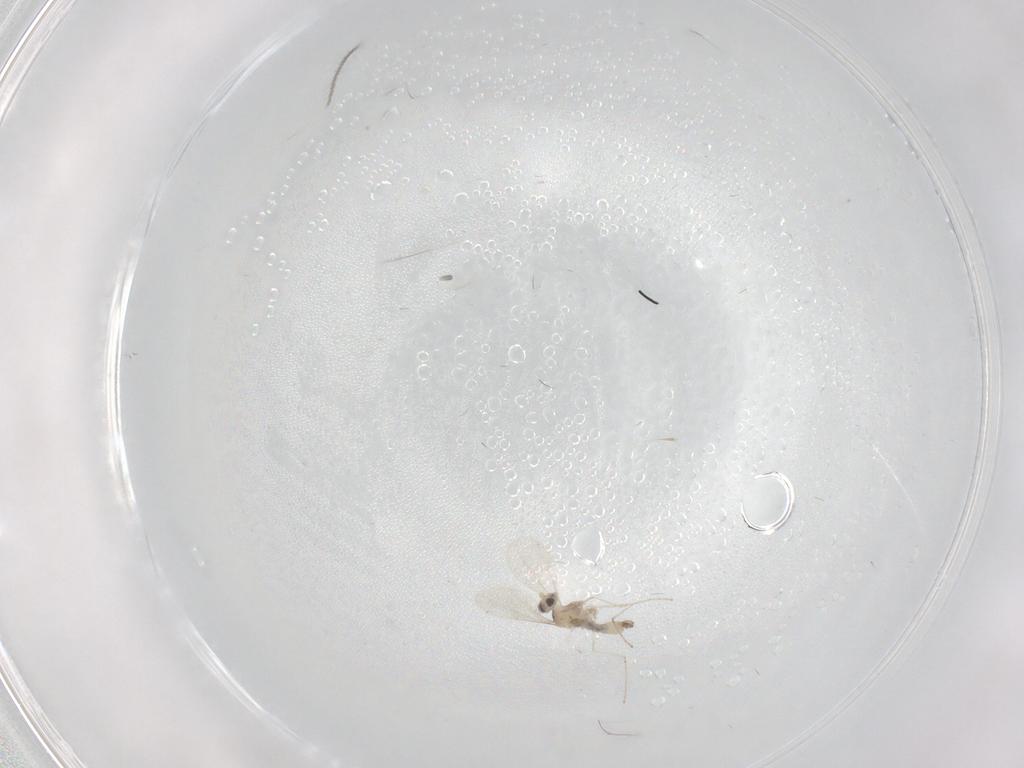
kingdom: Animalia
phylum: Arthropoda
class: Insecta
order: Diptera
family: Cecidomyiidae
